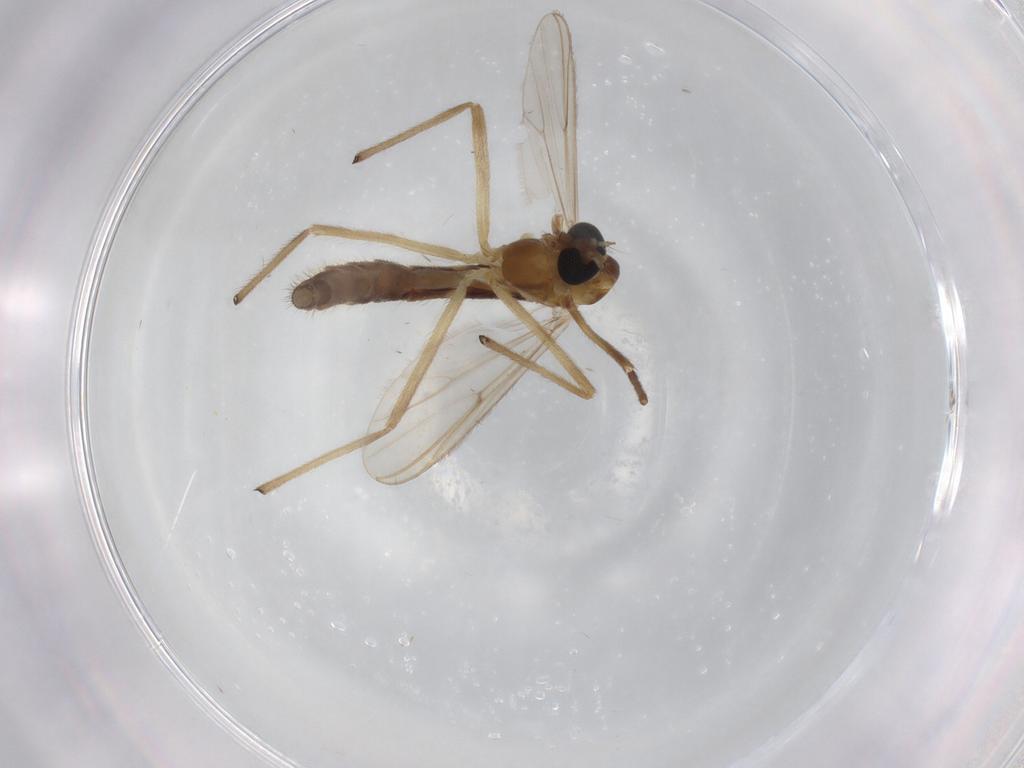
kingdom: Animalia
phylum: Arthropoda
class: Insecta
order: Diptera
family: Chironomidae
